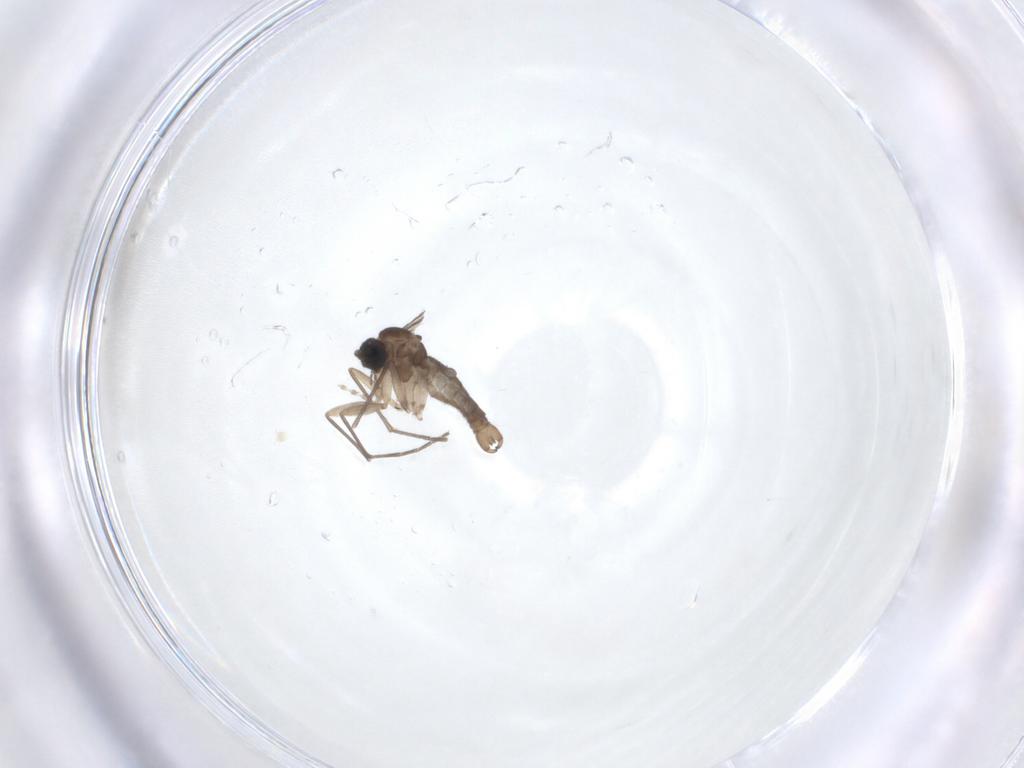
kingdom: Animalia
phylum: Arthropoda
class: Insecta
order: Diptera
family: Sciaridae
